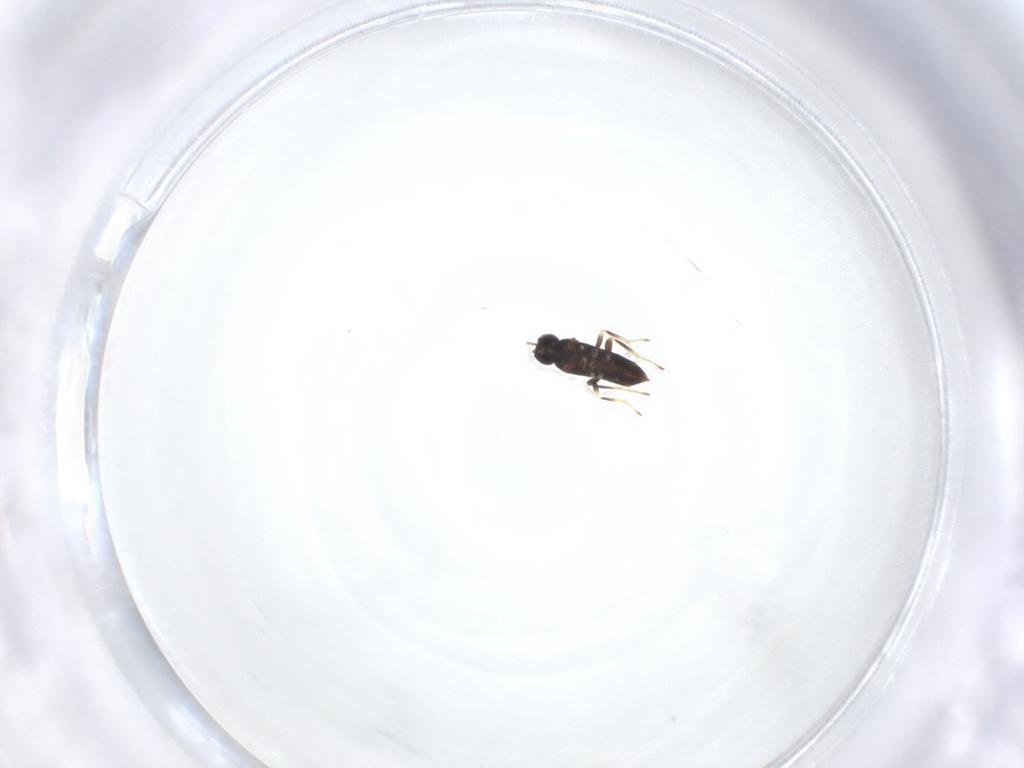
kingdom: Animalia
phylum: Arthropoda
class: Insecta
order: Hymenoptera
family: Aphelinidae
